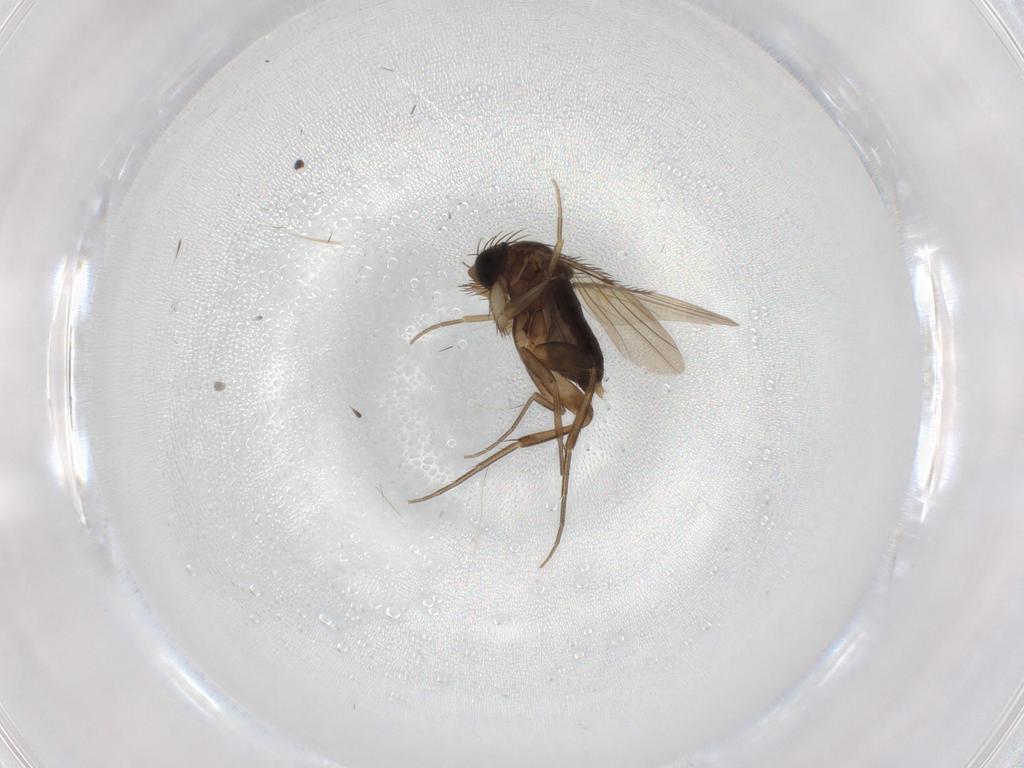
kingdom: Animalia
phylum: Arthropoda
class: Insecta
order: Diptera
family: Phoridae
